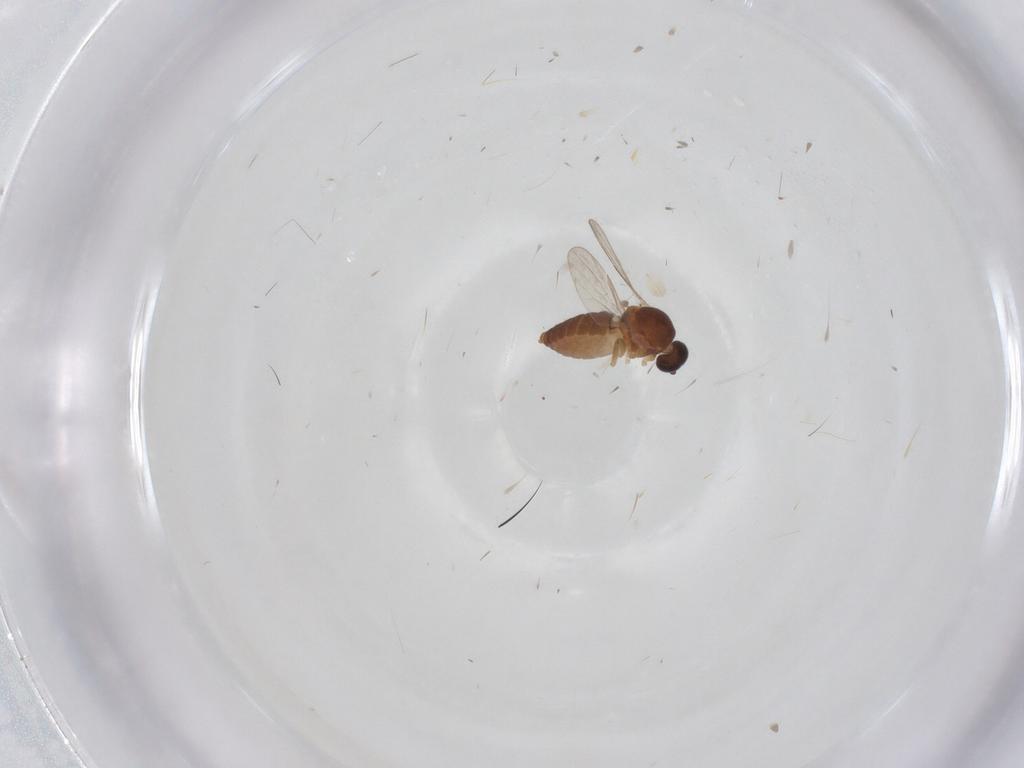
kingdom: Animalia
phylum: Arthropoda
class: Insecta
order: Diptera
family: Ceratopogonidae
